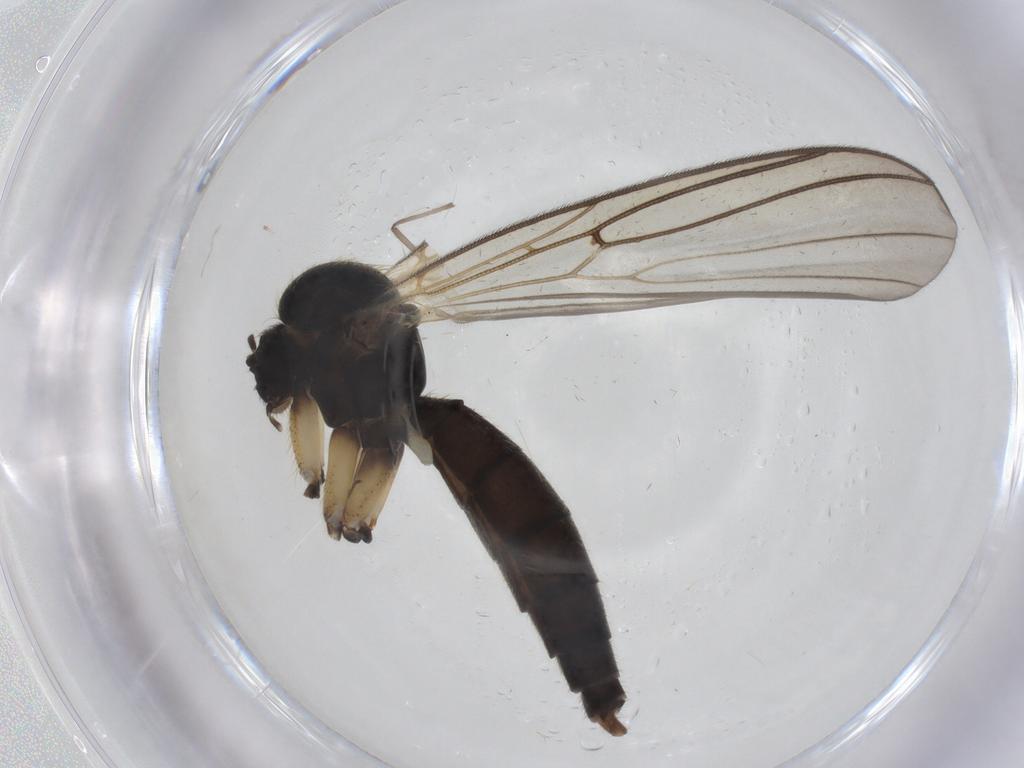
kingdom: Animalia
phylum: Arthropoda
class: Insecta
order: Diptera
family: Mycetophilidae
